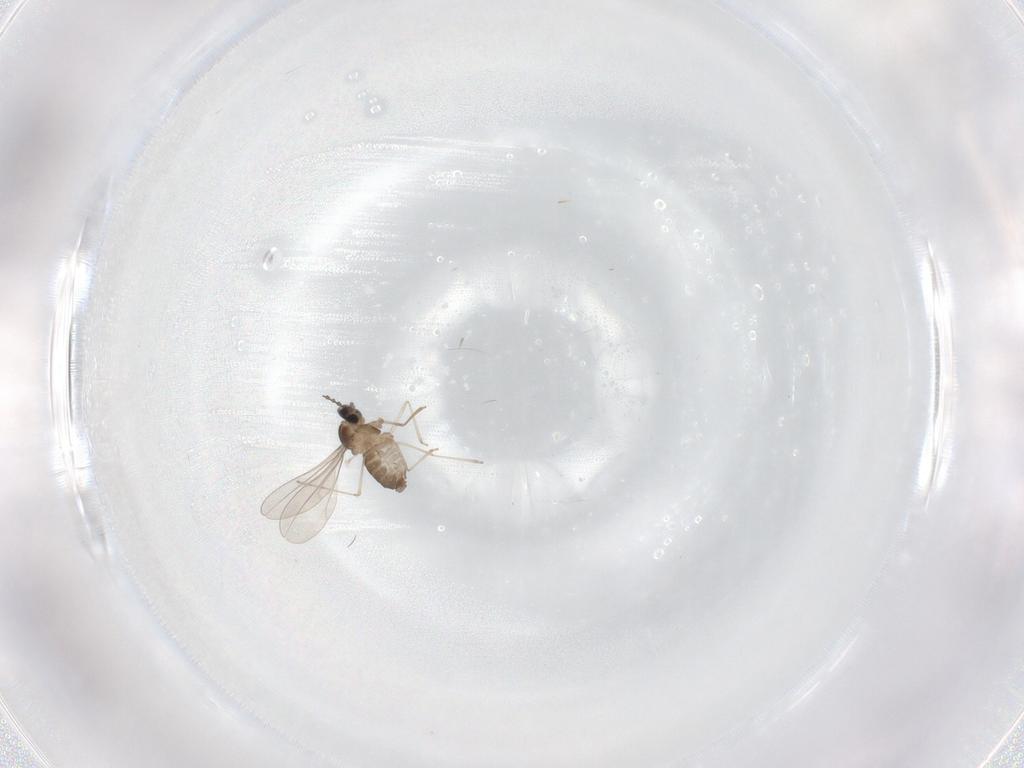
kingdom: Animalia
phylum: Arthropoda
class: Insecta
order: Diptera
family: Cecidomyiidae
